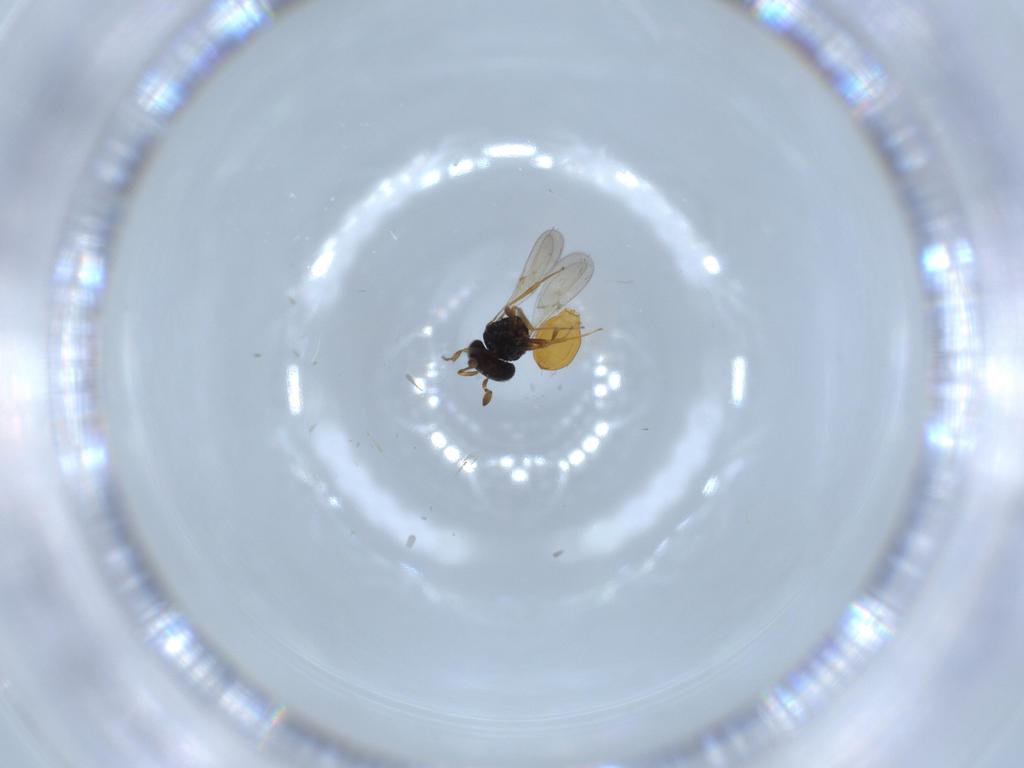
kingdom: Animalia
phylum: Arthropoda
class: Insecta
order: Hymenoptera
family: Scelionidae
